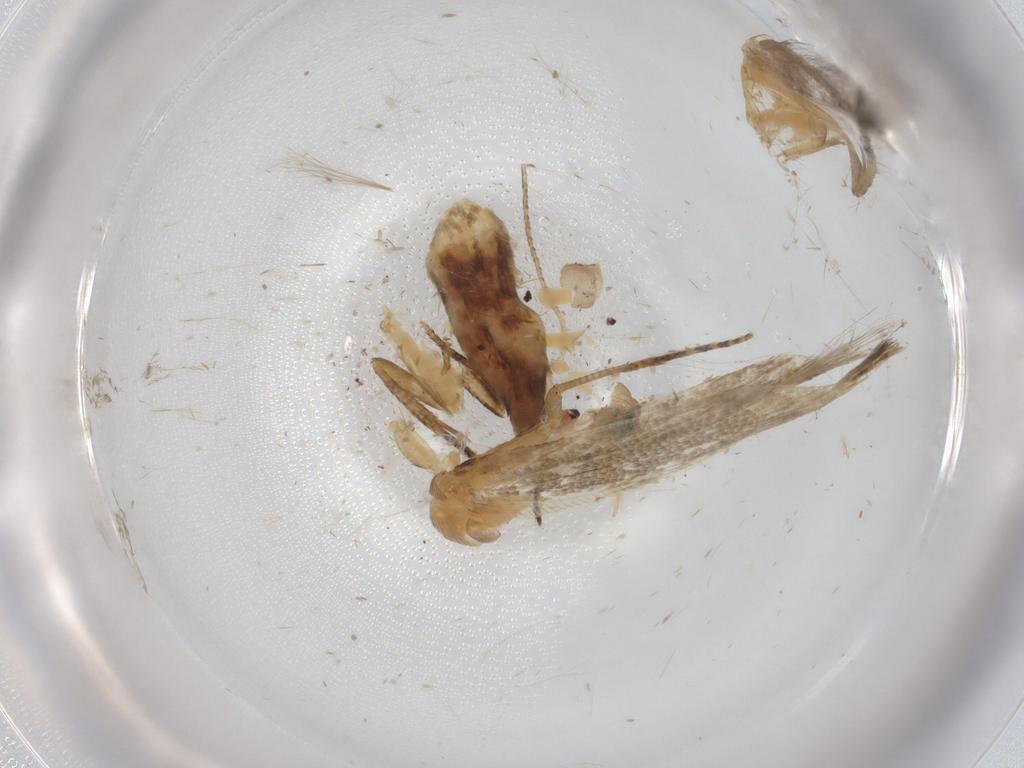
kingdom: Animalia
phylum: Arthropoda
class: Insecta
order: Lepidoptera
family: Cosmopterigidae
